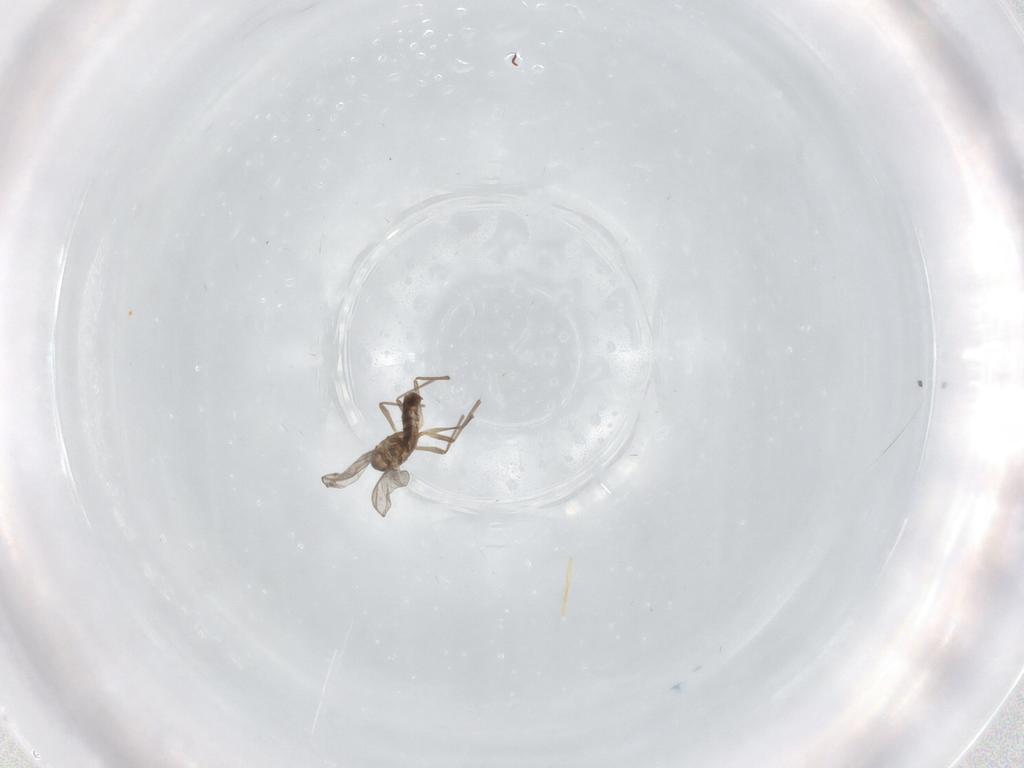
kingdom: Animalia
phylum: Arthropoda
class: Insecta
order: Diptera
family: Chironomidae
